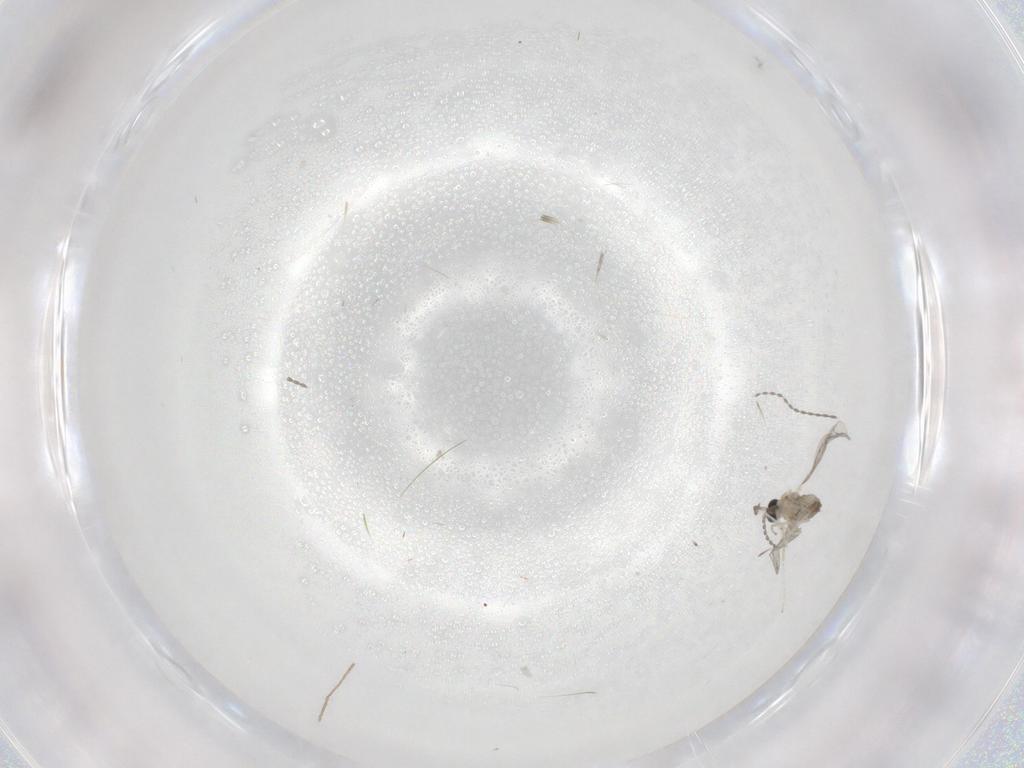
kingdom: Animalia
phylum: Arthropoda
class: Insecta
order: Diptera
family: Cecidomyiidae
